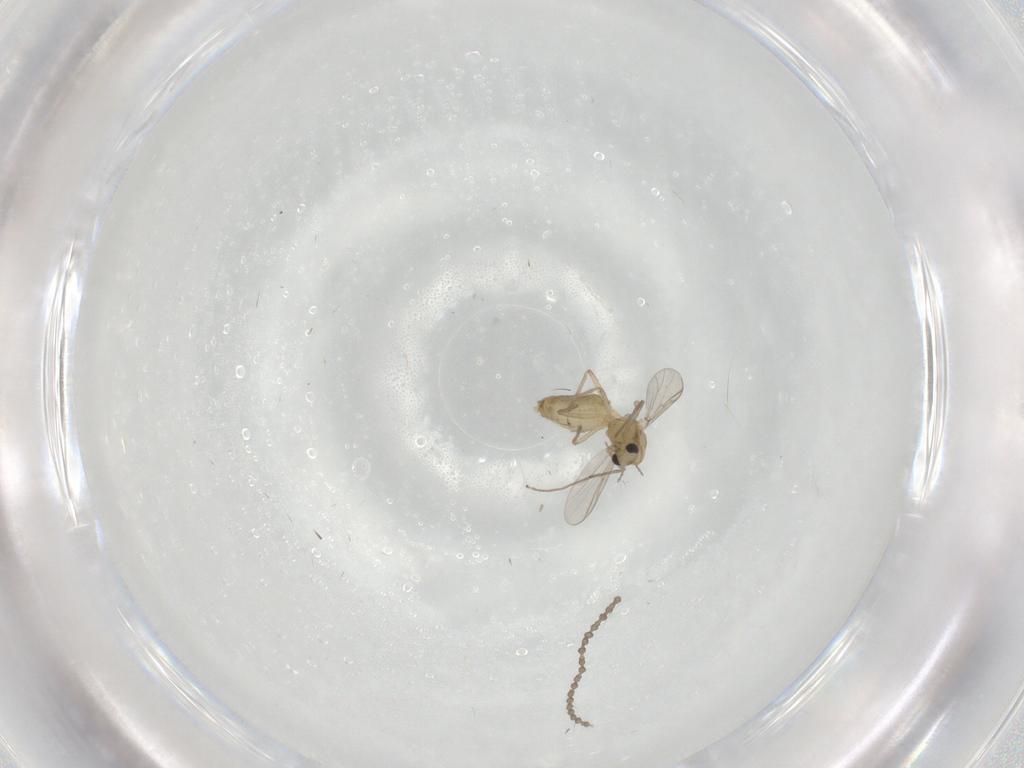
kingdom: Animalia
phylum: Arthropoda
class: Insecta
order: Diptera
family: Chironomidae
